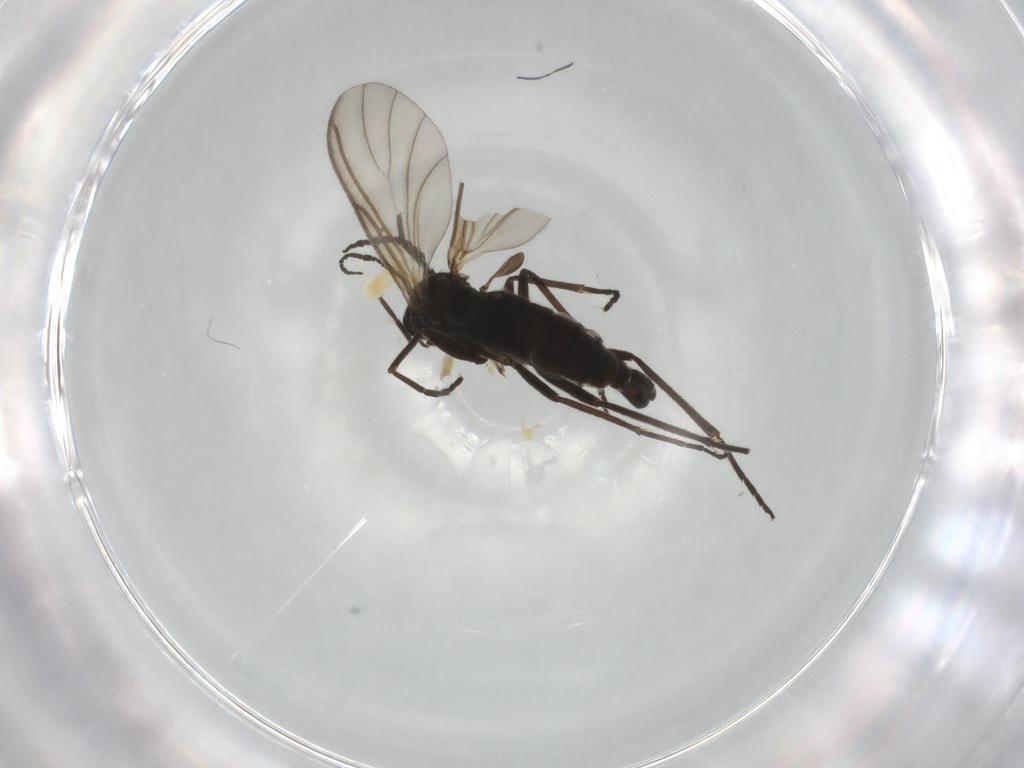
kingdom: Animalia
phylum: Arthropoda
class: Insecta
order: Diptera
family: Sciaridae
